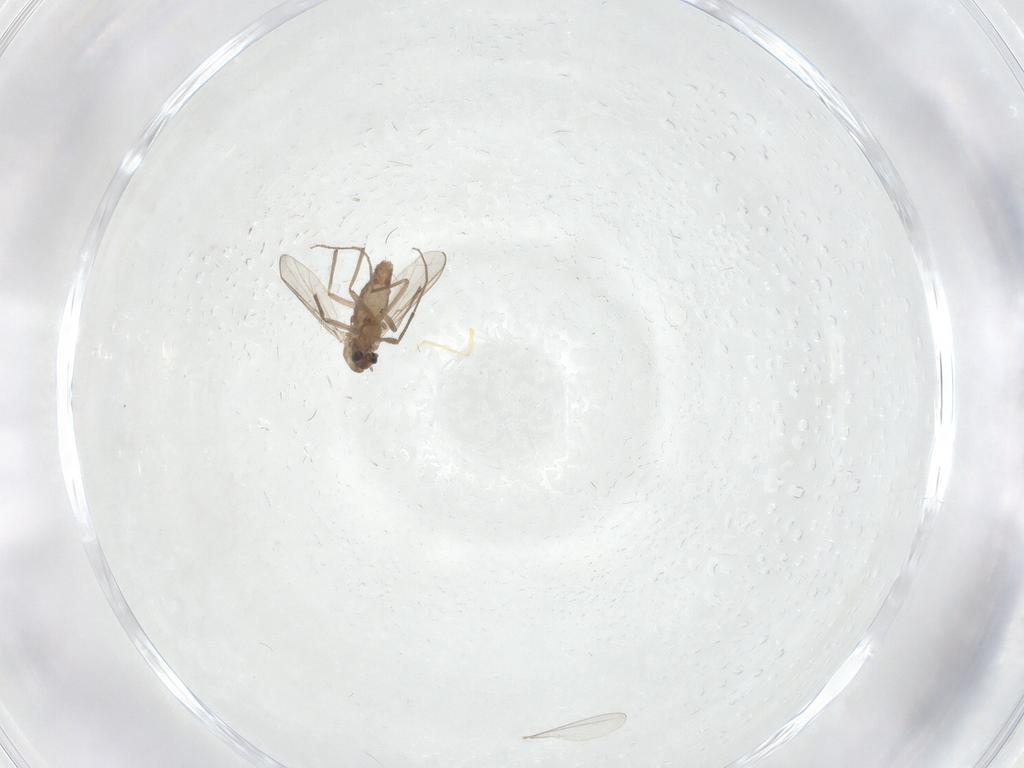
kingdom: Animalia
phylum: Arthropoda
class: Insecta
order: Diptera
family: Chironomidae
